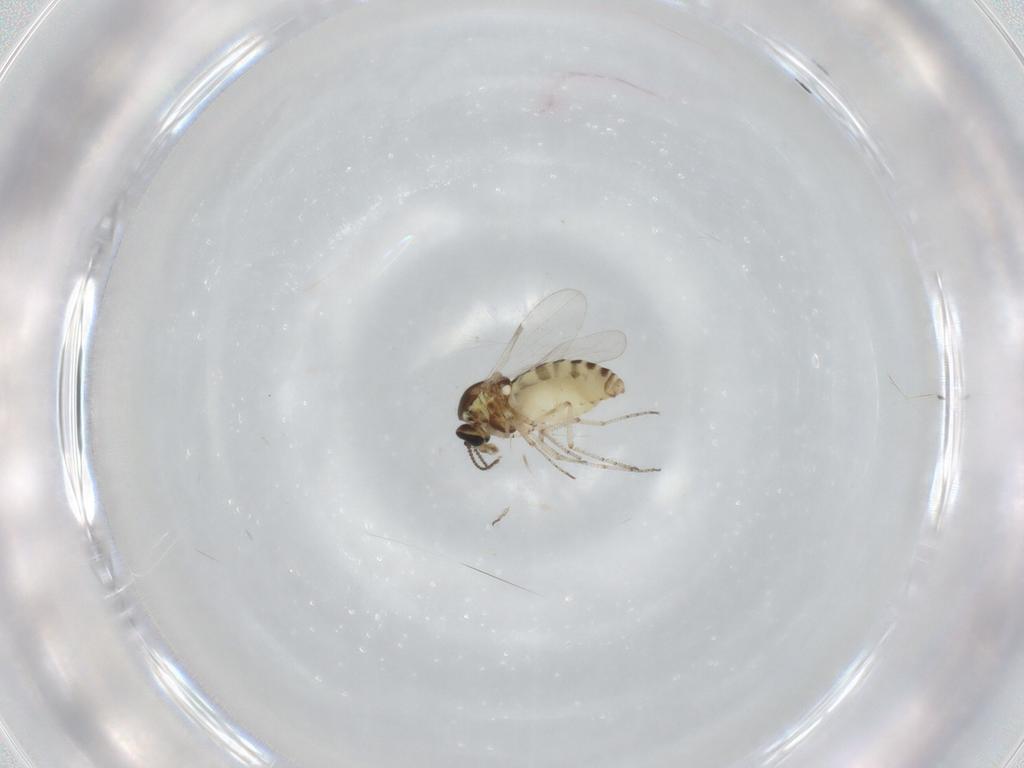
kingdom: Animalia
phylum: Arthropoda
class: Insecta
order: Diptera
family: Ceratopogonidae
